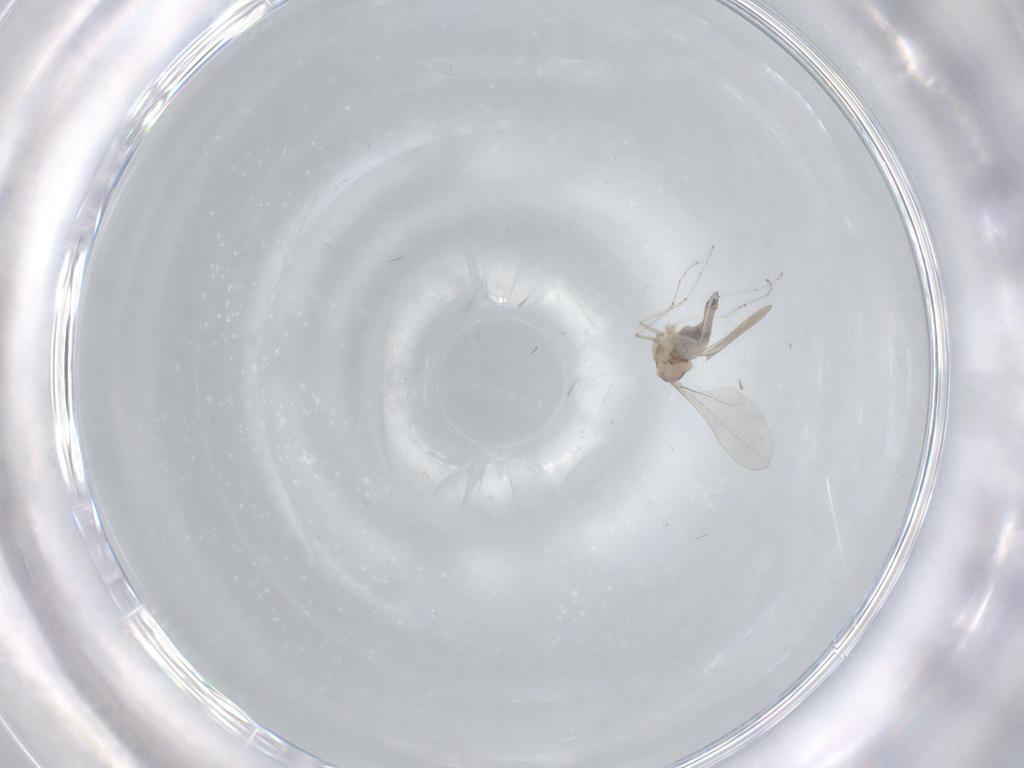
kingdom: Animalia
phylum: Arthropoda
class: Insecta
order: Diptera
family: Cecidomyiidae
